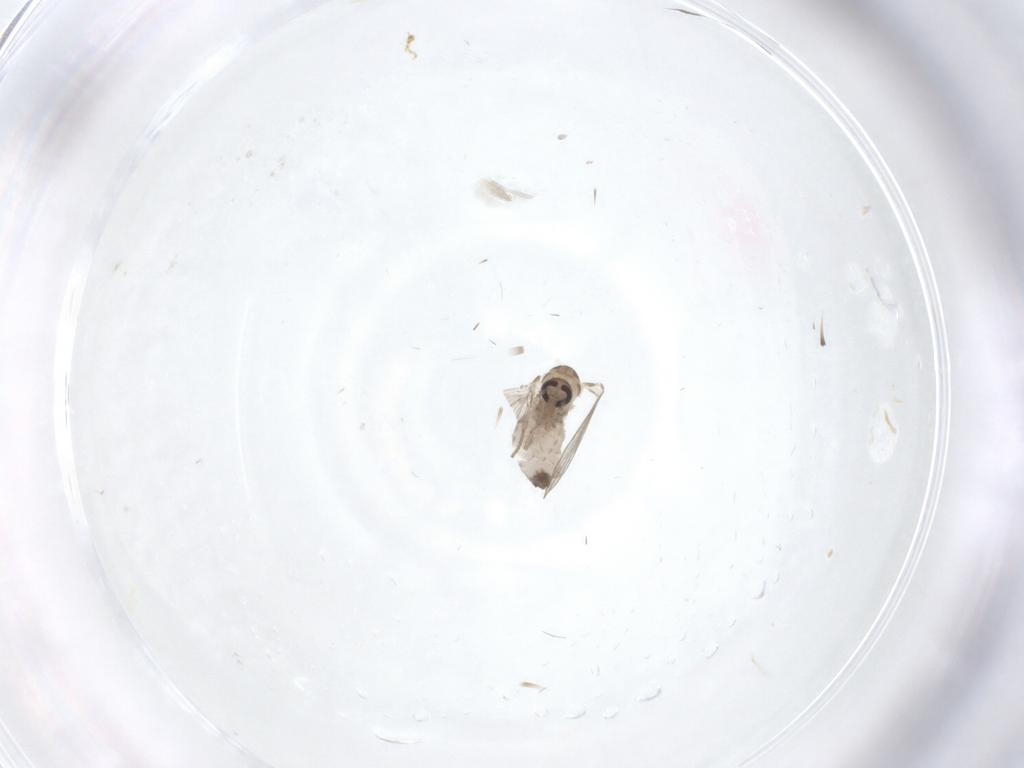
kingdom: Animalia
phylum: Arthropoda
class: Insecta
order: Diptera
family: Psychodidae
